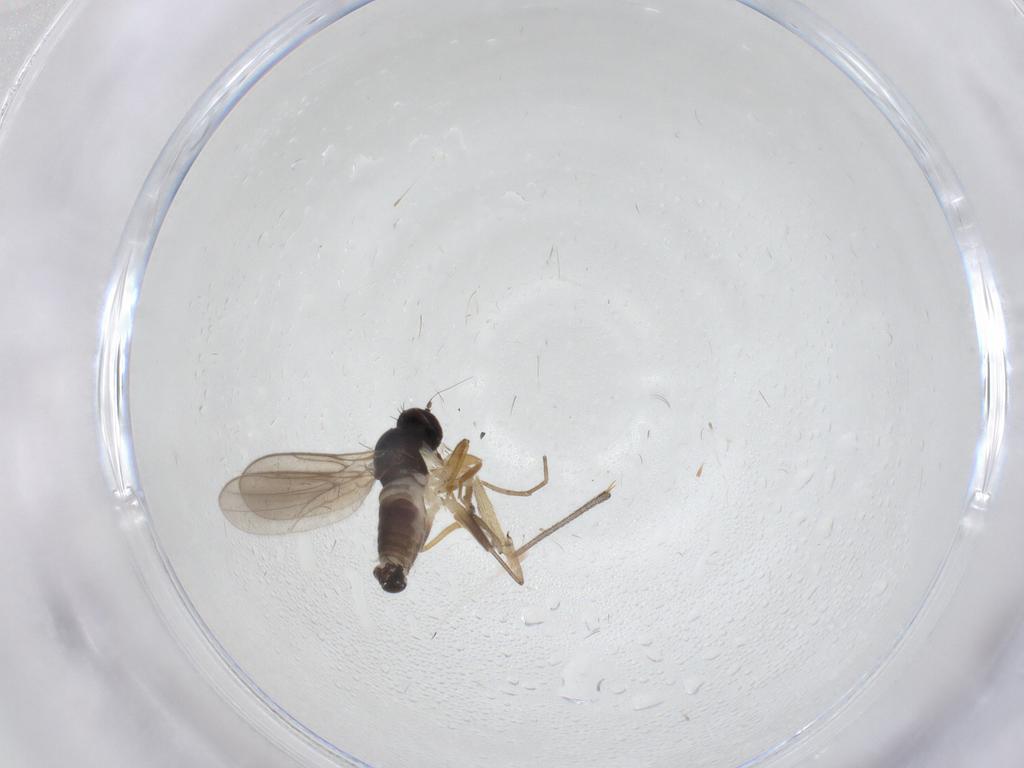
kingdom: Animalia
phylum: Arthropoda
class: Insecta
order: Diptera
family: Hybotidae
